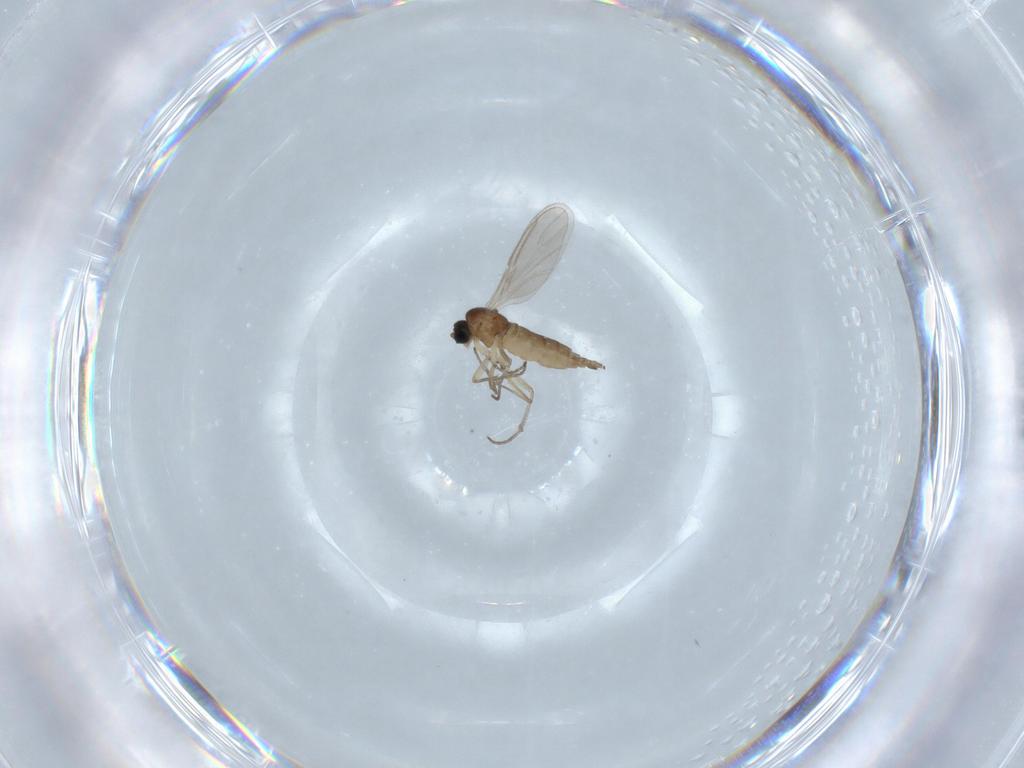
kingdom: Animalia
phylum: Arthropoda
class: Insecta
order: Diptera
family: Sciaridae
